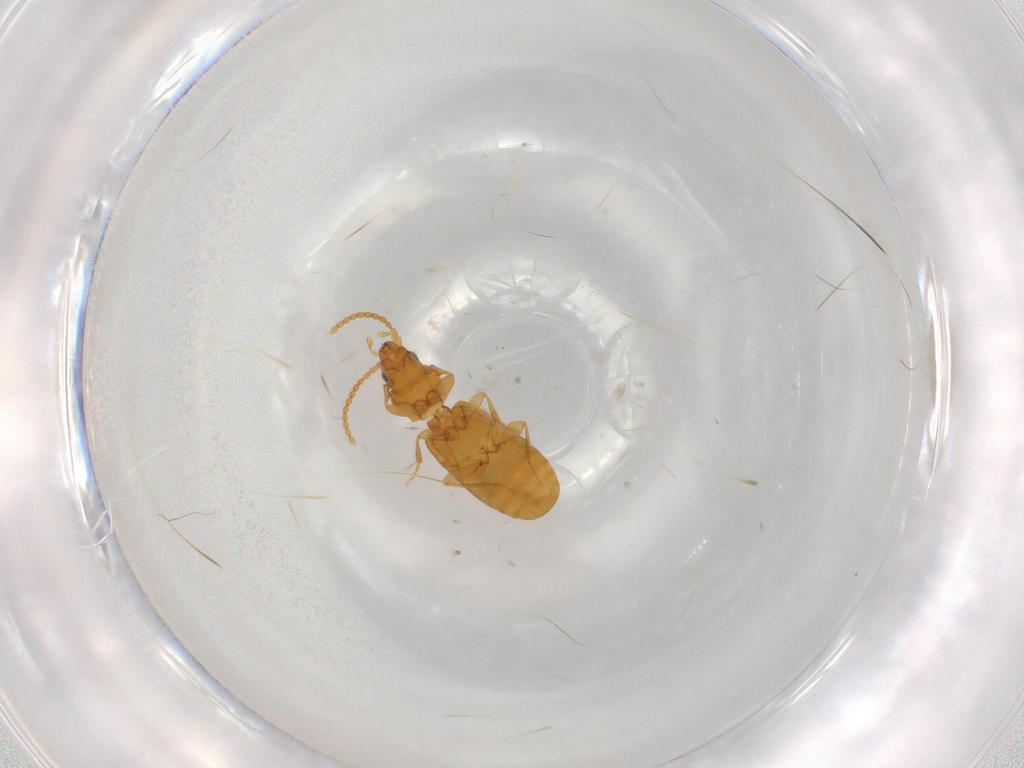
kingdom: Animalia
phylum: Arthropoda
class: Insecta
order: Coleoptera
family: Carabidae
